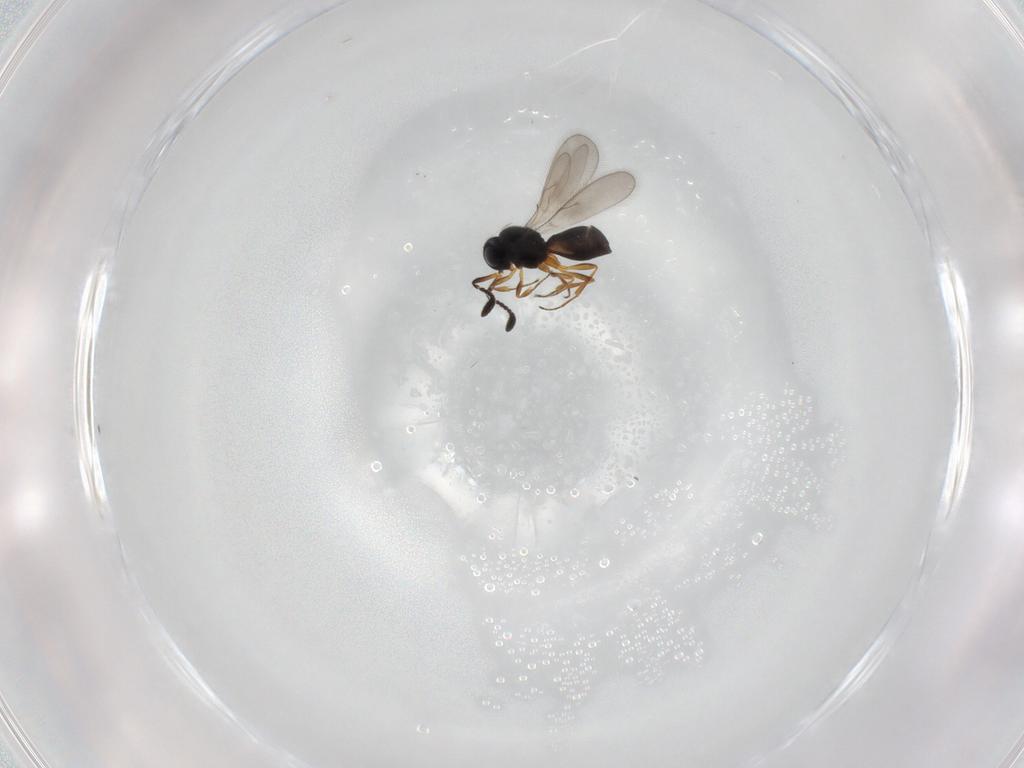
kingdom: Animalia
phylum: Arthropoda
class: Insecta
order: Hymenoptera
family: Scelionidae
